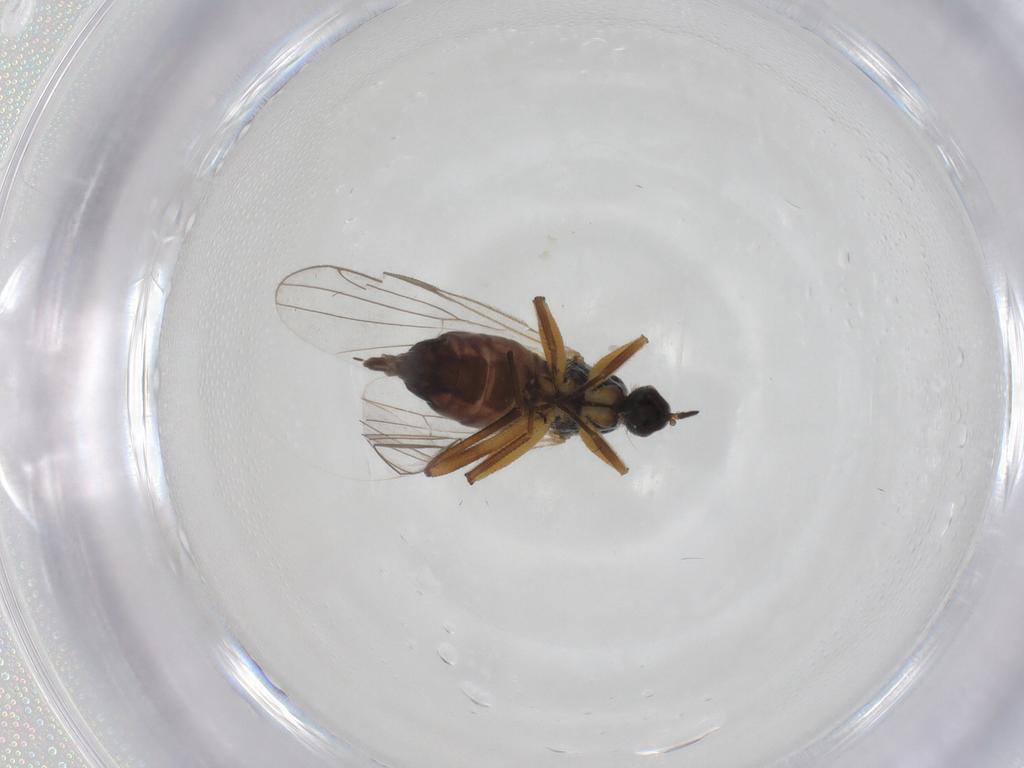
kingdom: Animalia
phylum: Arthropoda
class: Insecta
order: Diptera
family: Hybotidae
